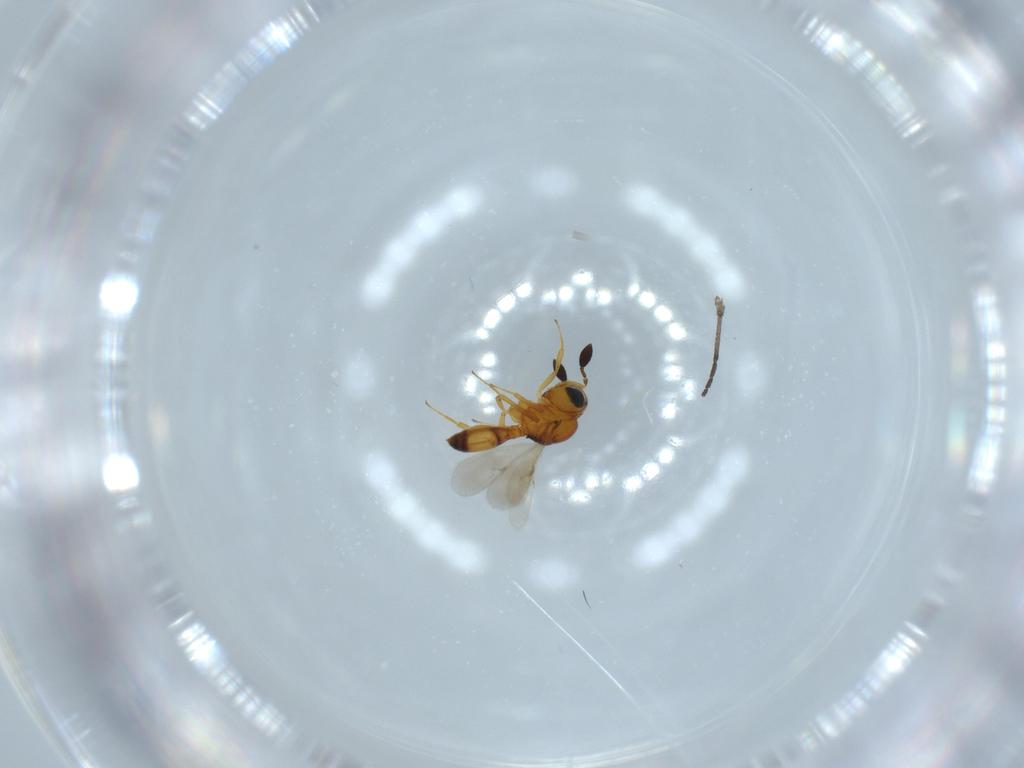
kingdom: Animalia
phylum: Arthropoda
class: Insecta
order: Hymenoptera
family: Scelionidae
